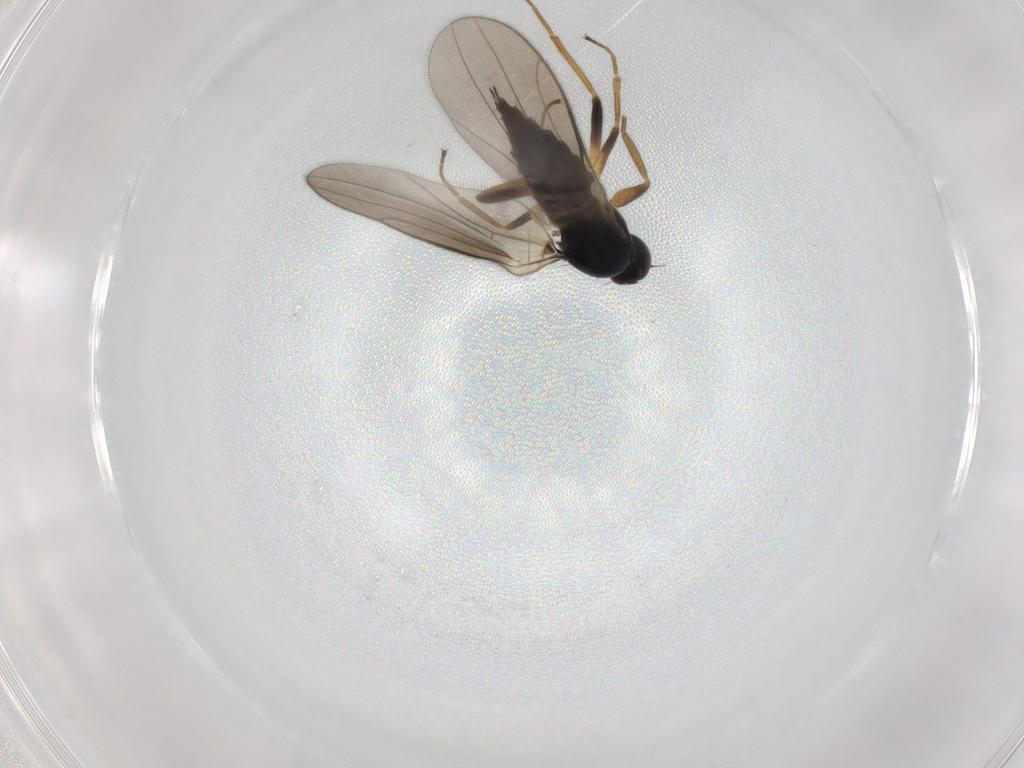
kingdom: Animalia
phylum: Arthropoda
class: Insecta
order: Diptera
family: Hybotidae
